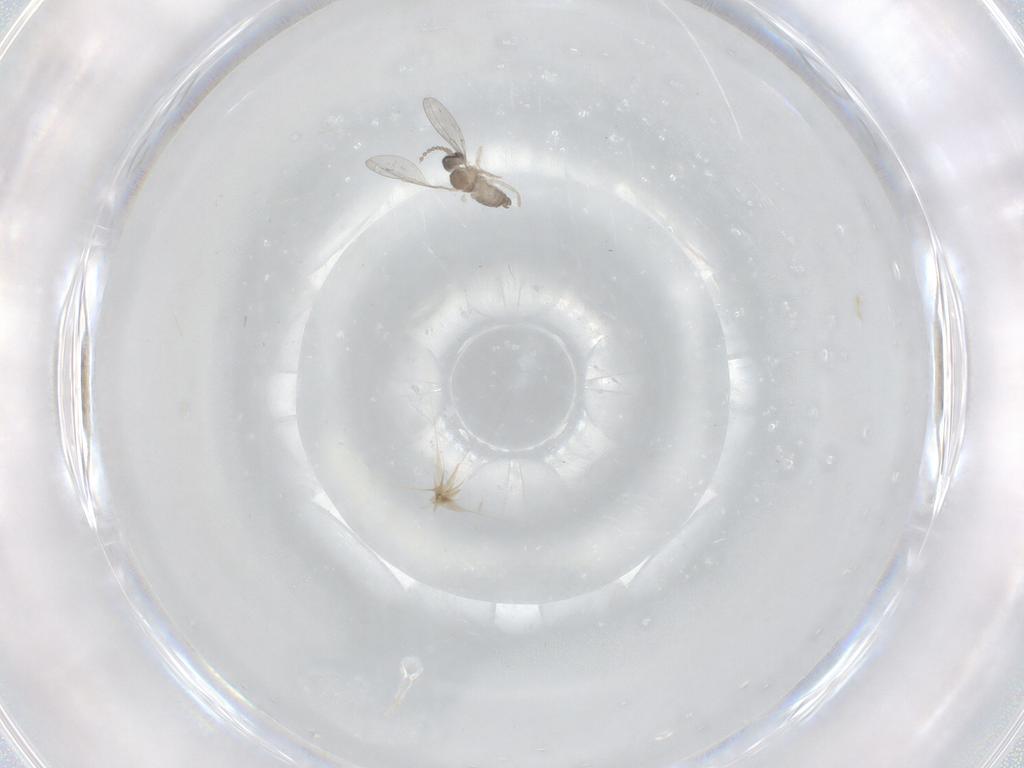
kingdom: Animalia
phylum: Arthropoda
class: Insecta
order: Diptera
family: Cecidomyiidae
